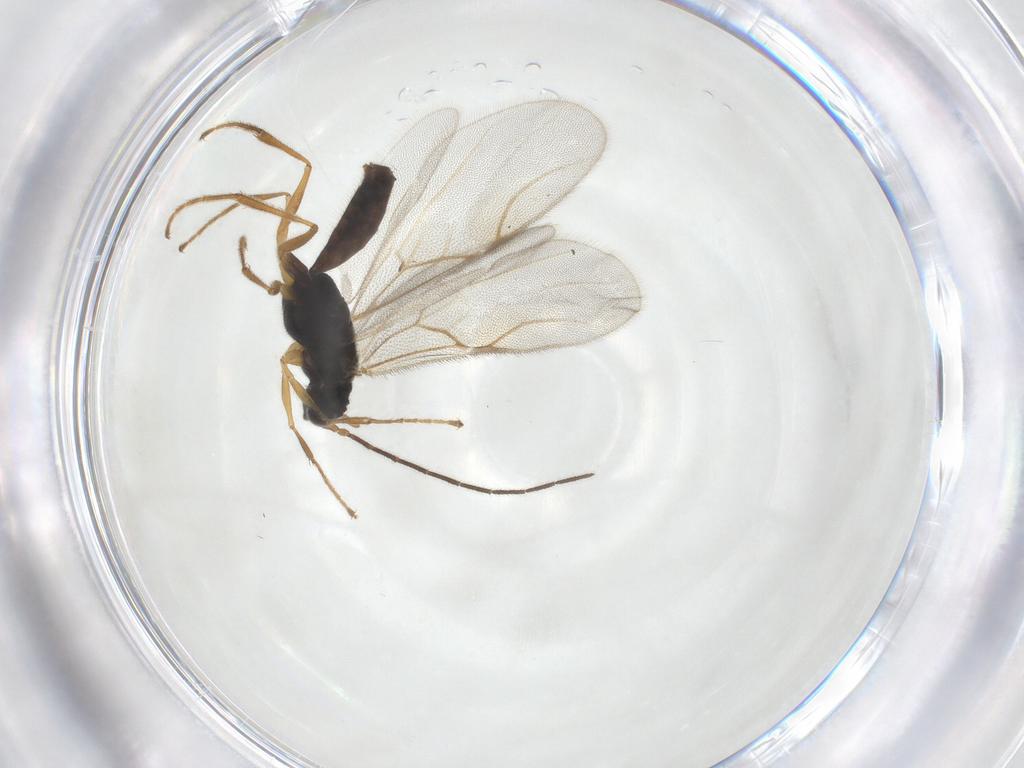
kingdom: Animalia
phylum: Arthropoda
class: Insecta
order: Hymenoptera
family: Dryinidae
